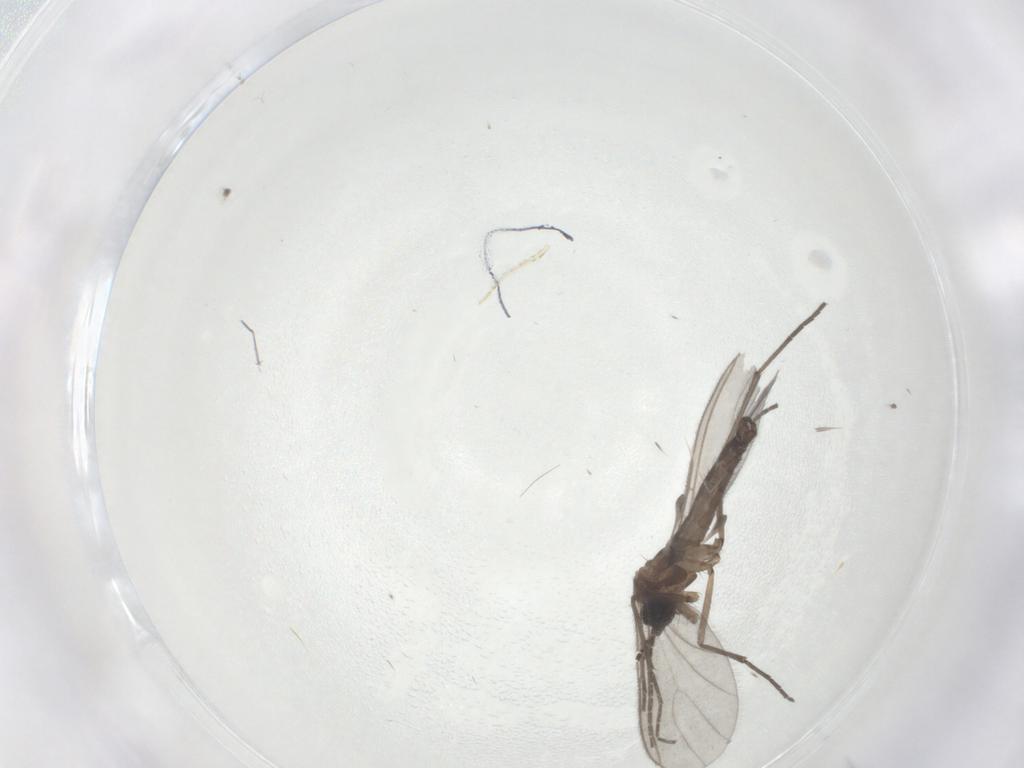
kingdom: Animalia
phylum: Arthropoda
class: Insecta
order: Diptera
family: Sciaridae
